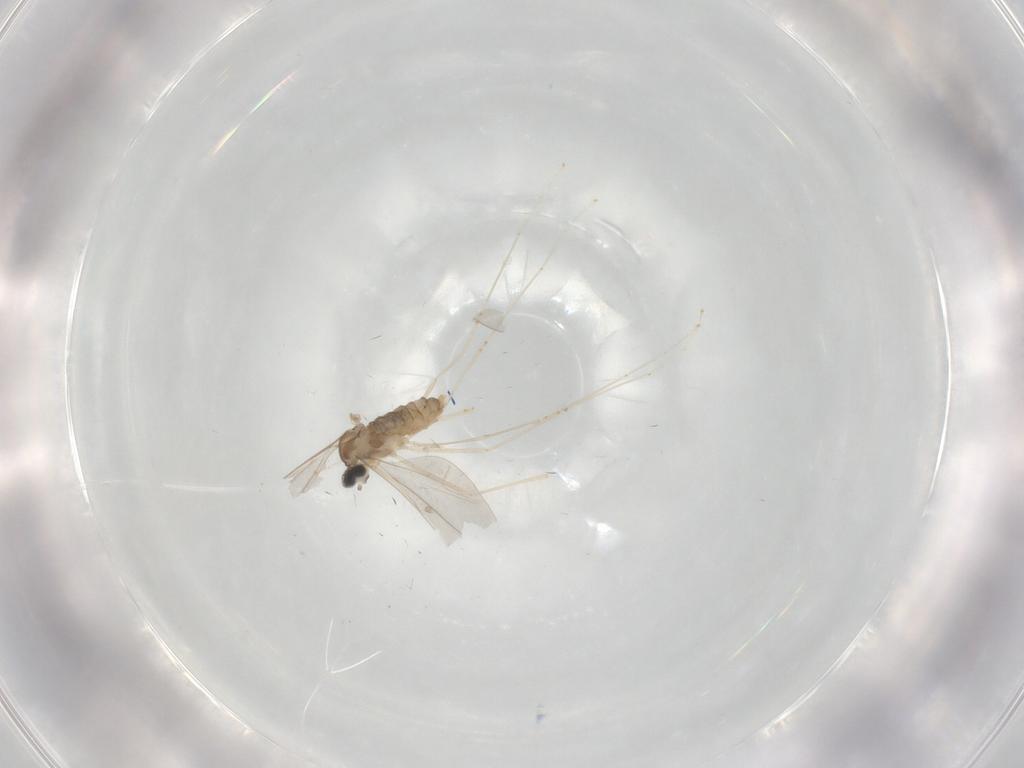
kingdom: Animalia
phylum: Arthropoda
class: Insecta
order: Diptera
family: Cecidomyiidae
